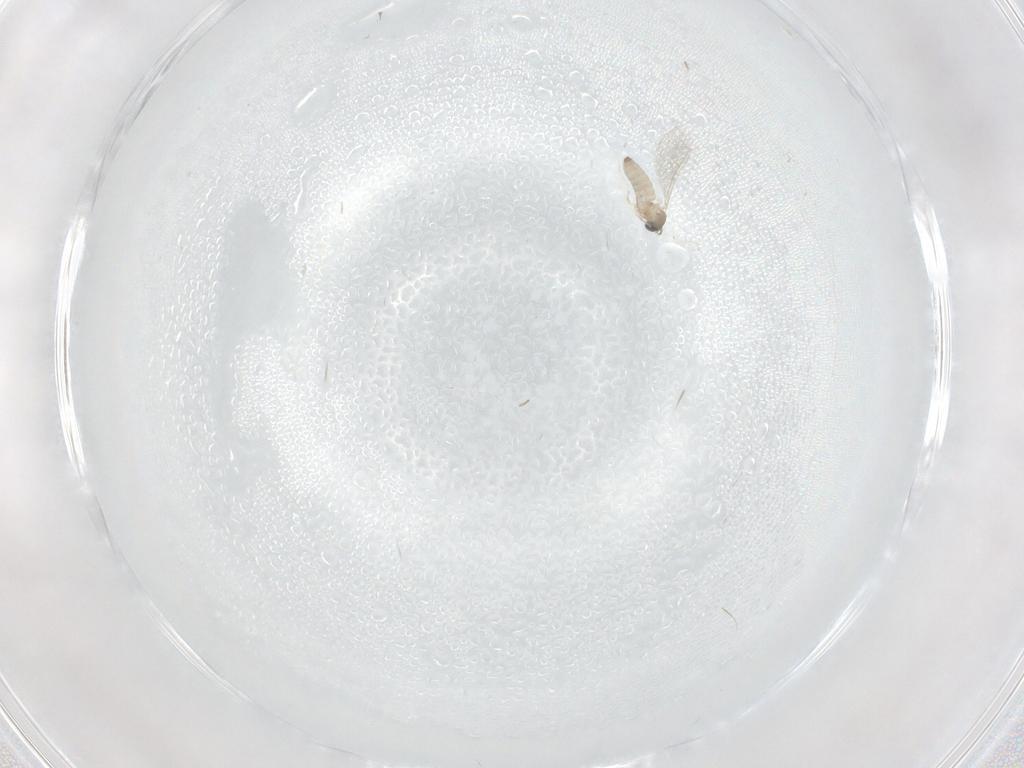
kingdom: Animalia
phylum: Arthropoda
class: Insecta
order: Diptera
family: Cecidomyiidae
